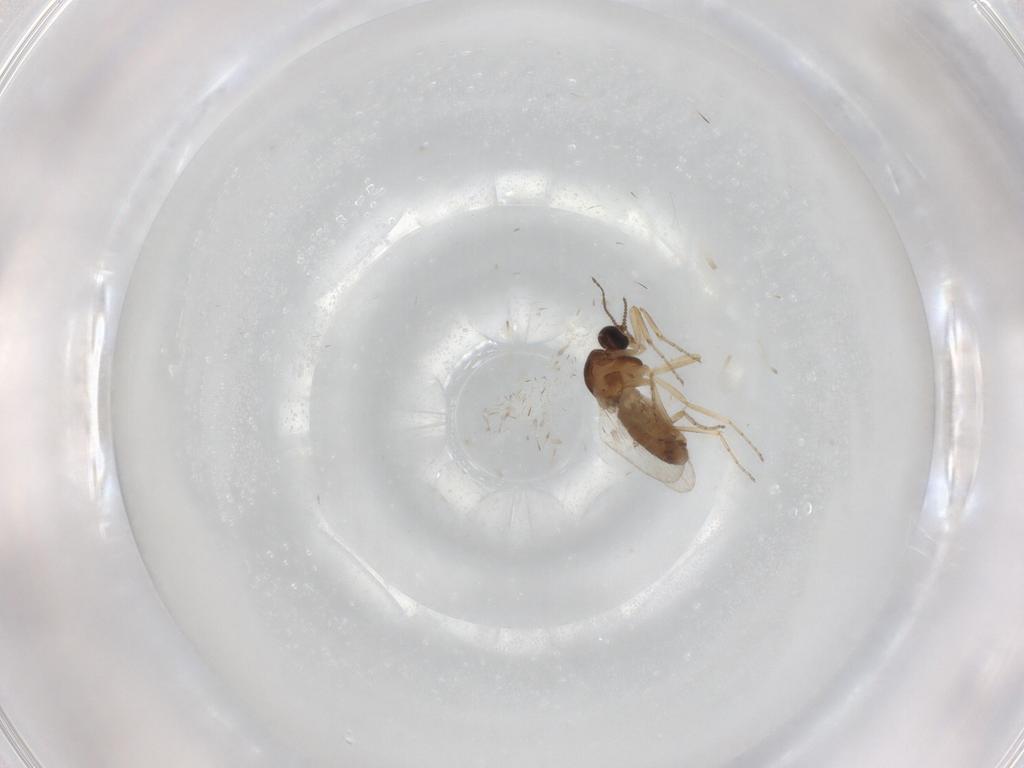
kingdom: Animalia
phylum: Arthropoda
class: Insecta
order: Diptera
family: Ceratopogonidae
